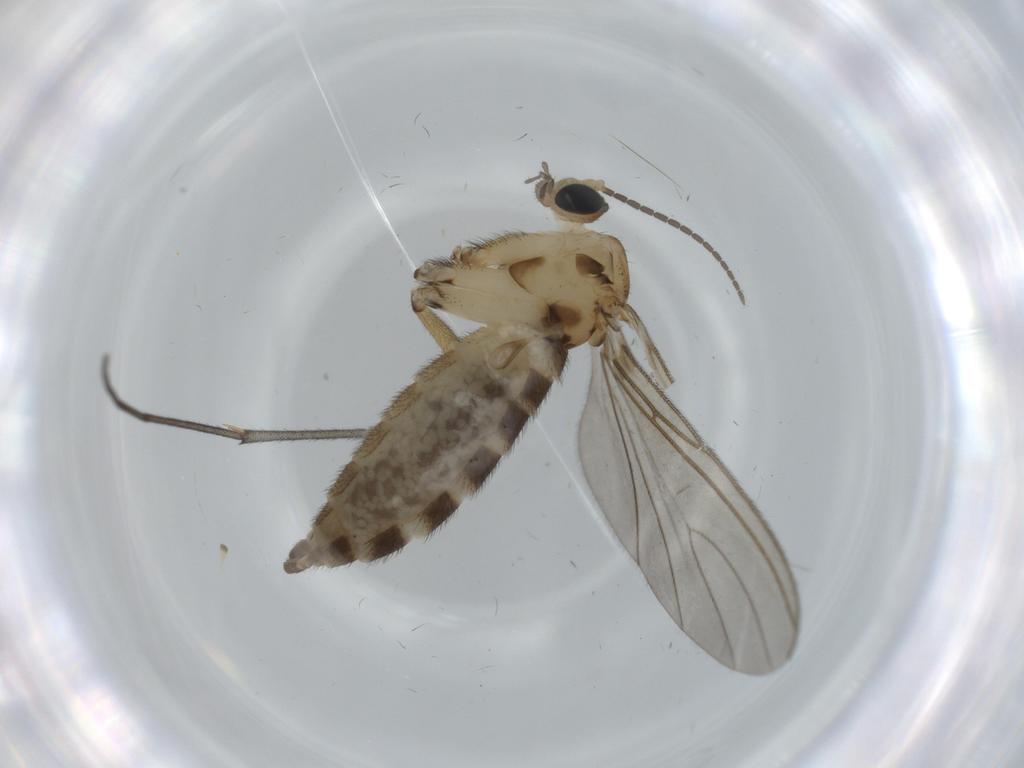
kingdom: Animalia
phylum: Arthropoda
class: Insecta
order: Diptera
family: Sciaridae
